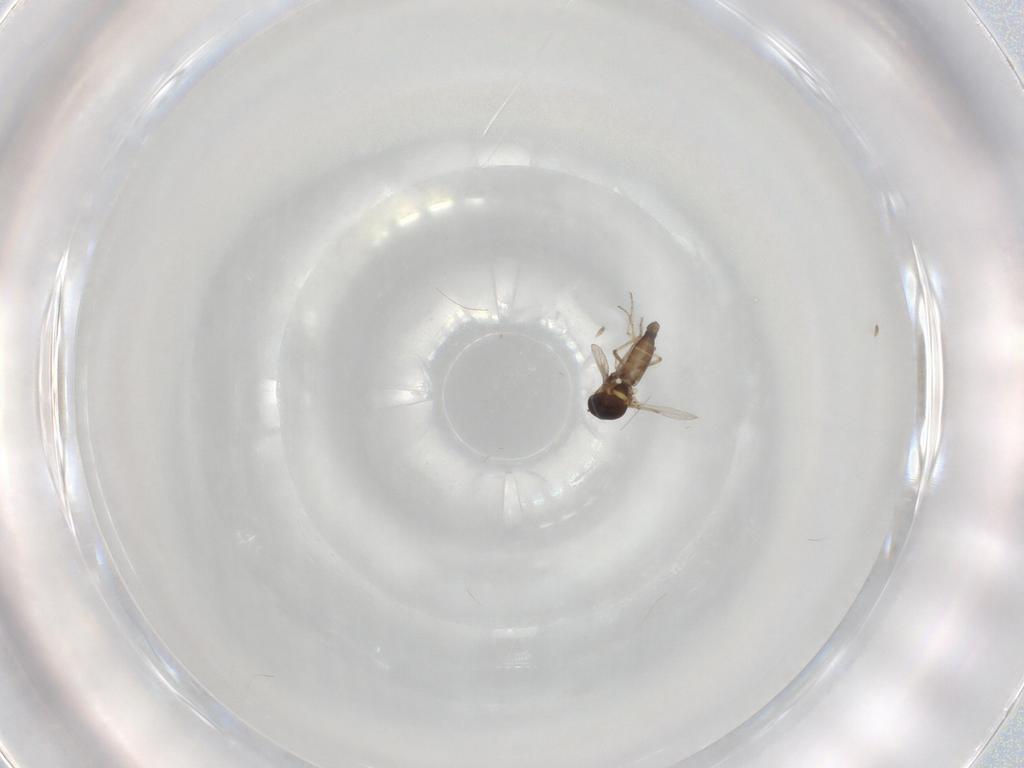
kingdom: Animalia
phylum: Arthropoda
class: Insecta
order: Diptera
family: Ceratopogonidae
